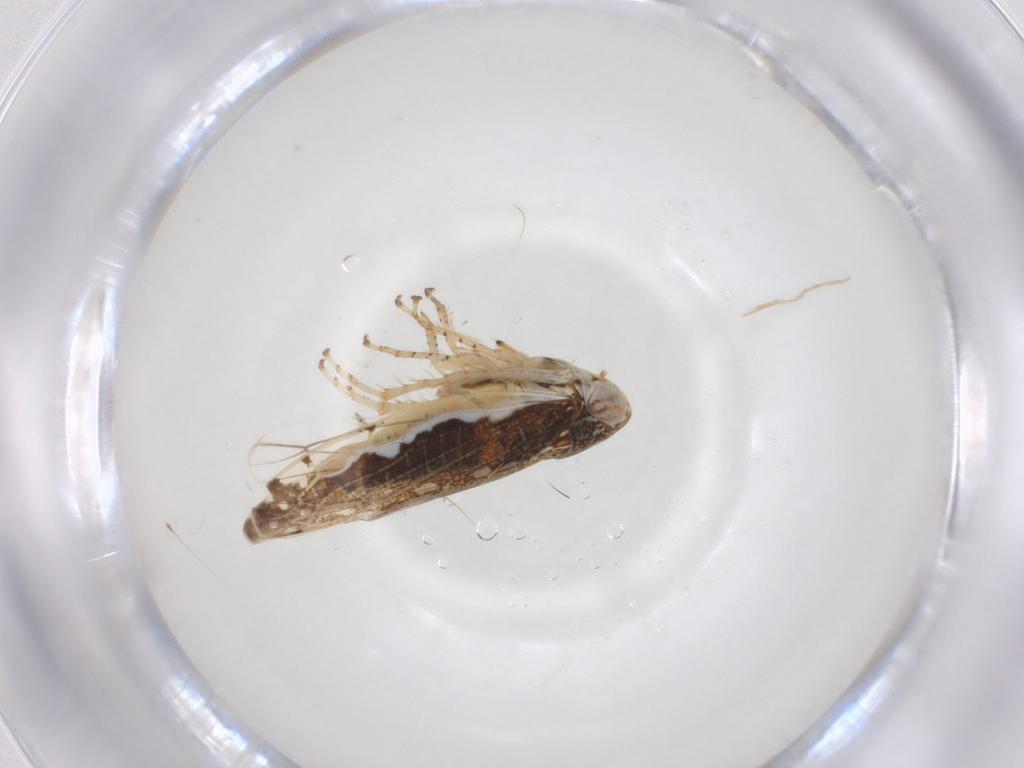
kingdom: Animalia
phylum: Arthropoda
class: Insecta
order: Hemiptera
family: Cicadellidae
